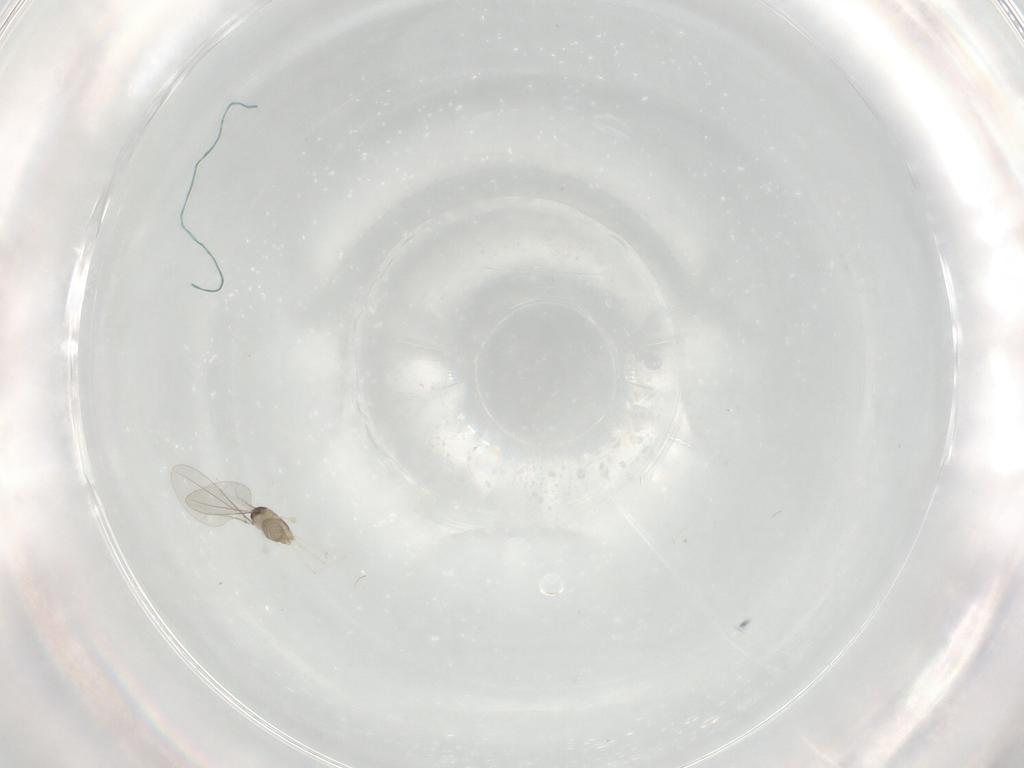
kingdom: Animalia
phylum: Arthropoda
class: Insecta
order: Diptera
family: Cecidomyiidae
